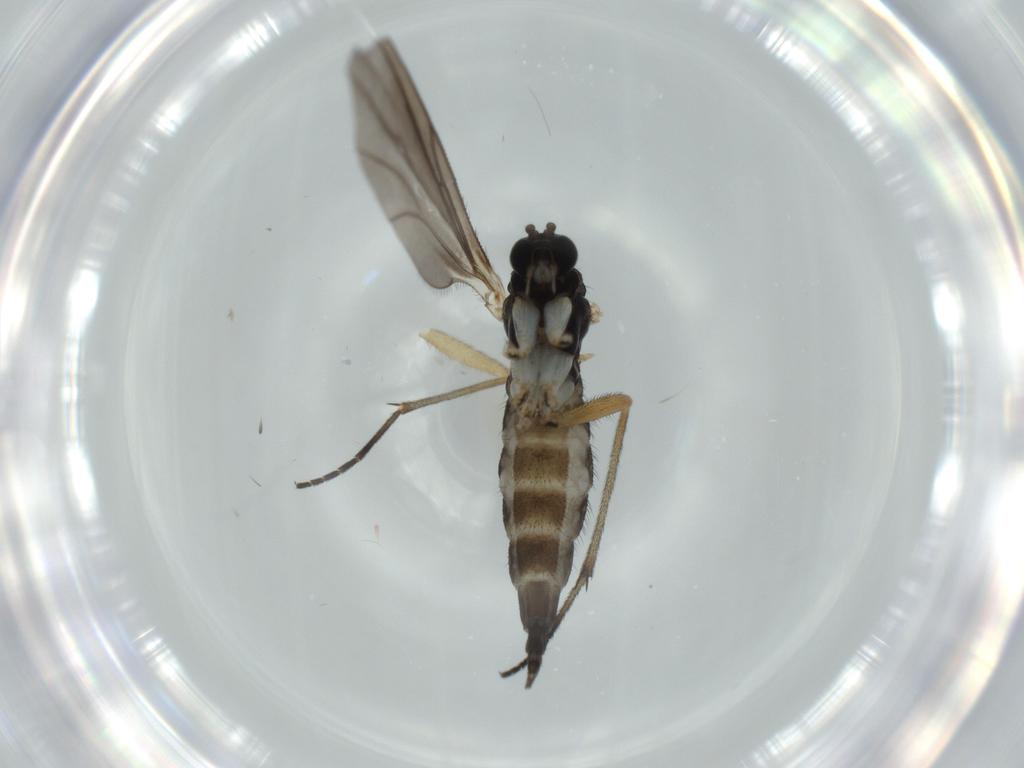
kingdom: Animalia
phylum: Arthropoda
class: Insecta
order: Diptera
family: Sciaridae
